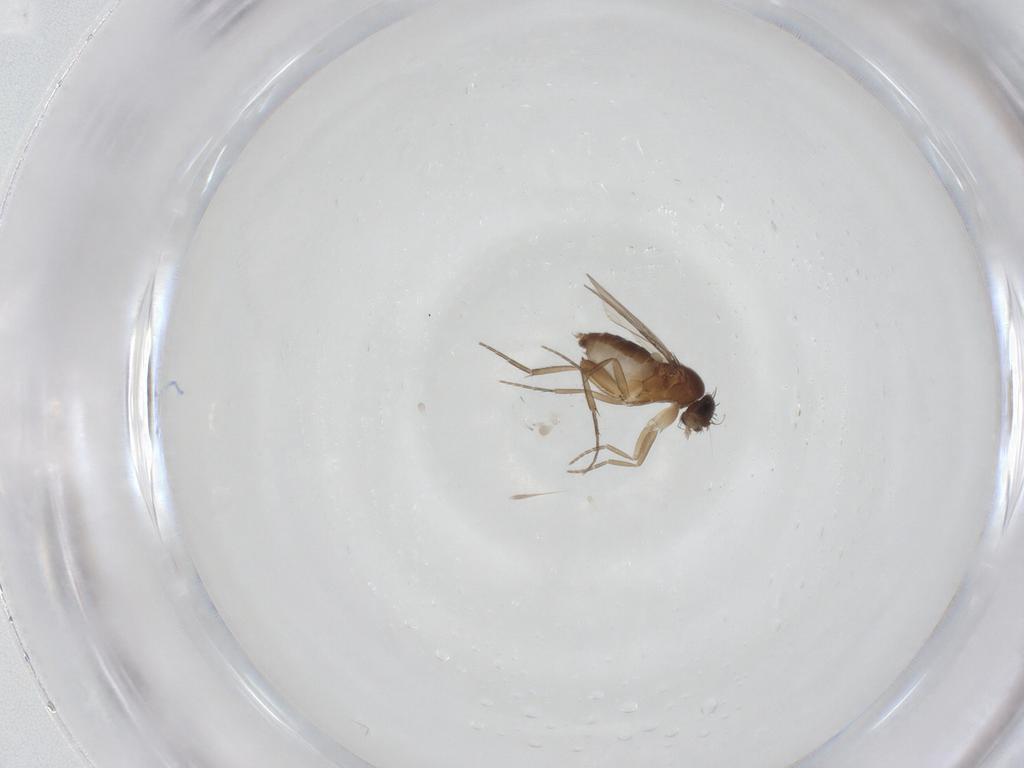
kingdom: Animalia
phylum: Arthropoda
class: Insecta
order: Diptera
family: Phoridae
